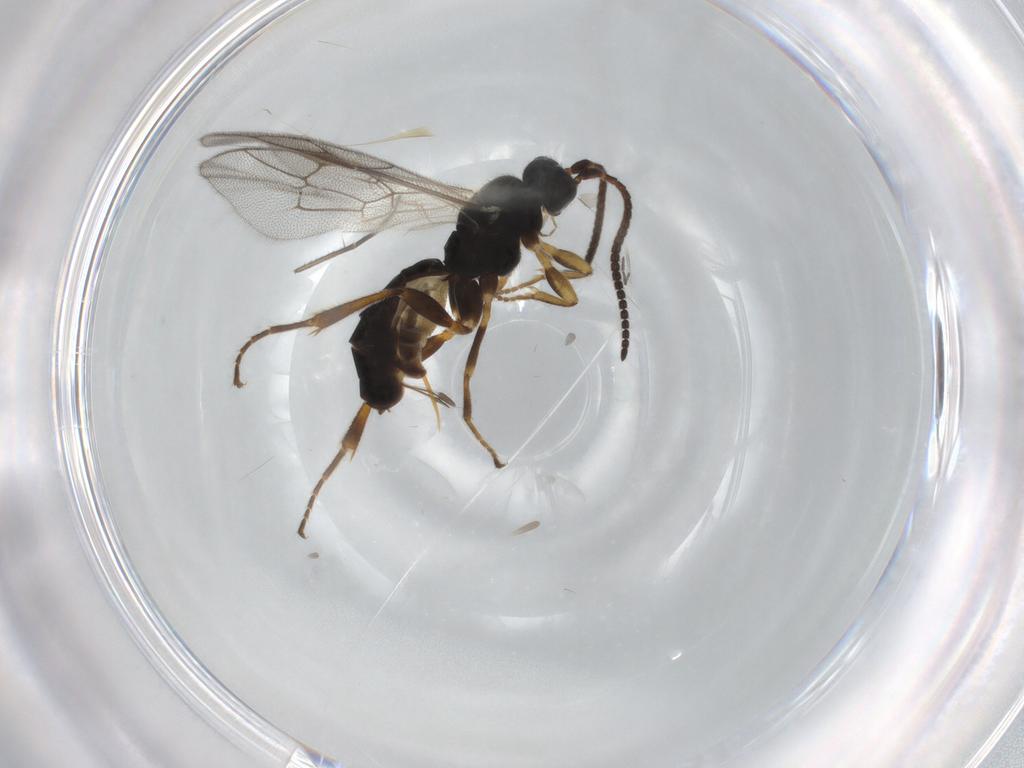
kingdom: Animalia
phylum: Arthropoda
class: Insecta
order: Hymenoptera
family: Ichneumonidae
